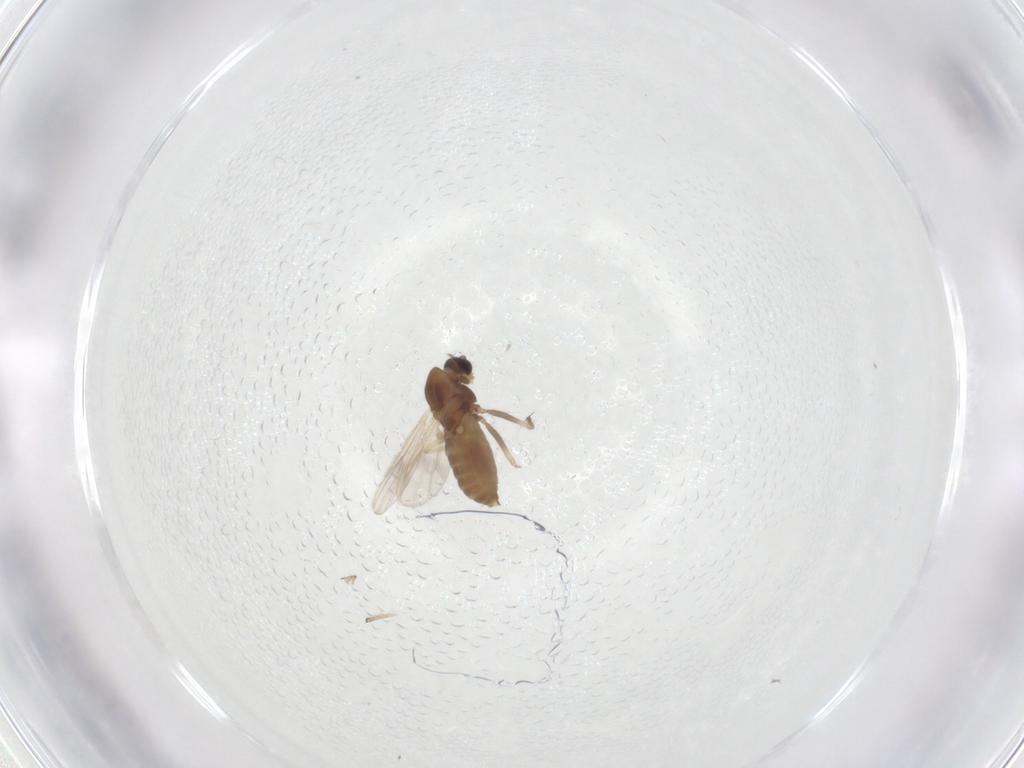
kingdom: Animalia
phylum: Arthropoda
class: Insecta
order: Diptera
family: Chironomidae
